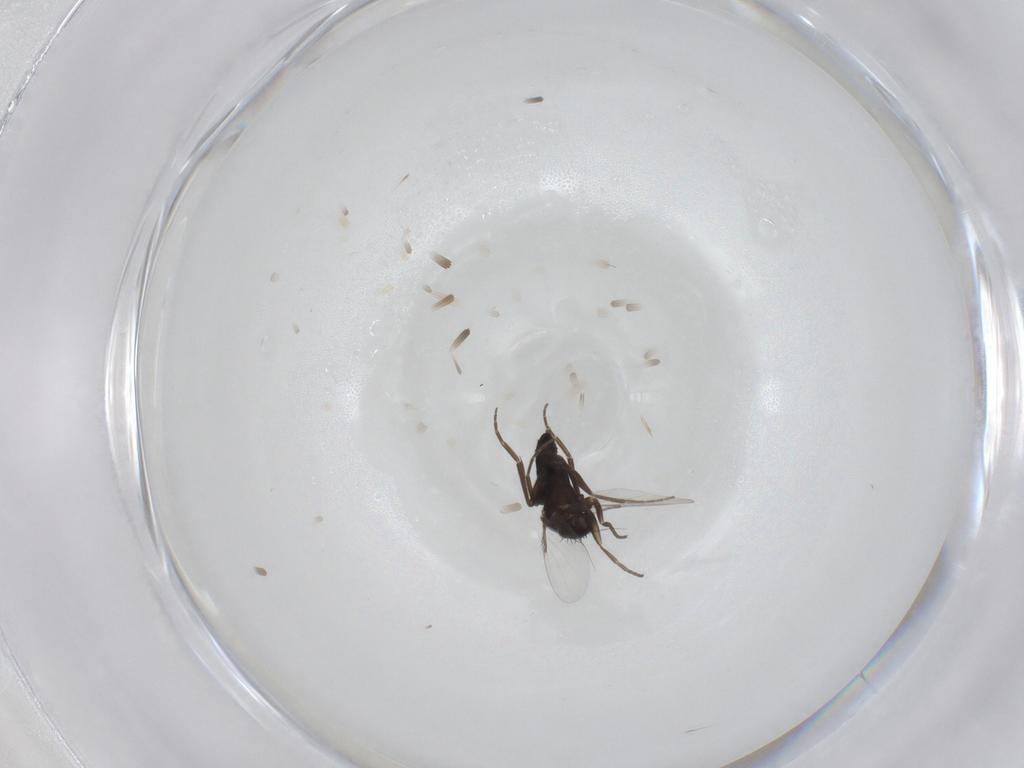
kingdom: Animalia
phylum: Arthropoda
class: Insecta
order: Diptera
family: Phoridae
